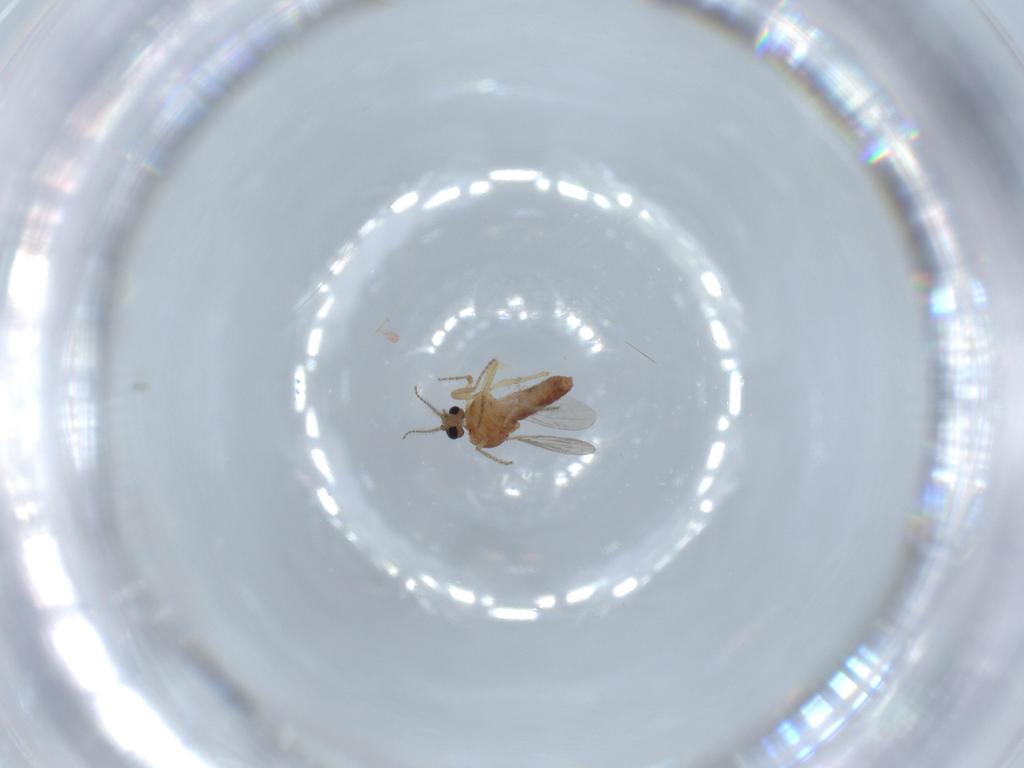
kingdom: Animalia
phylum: Arthropoda
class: Insecta
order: Diptera
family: Ceratopogonidae
